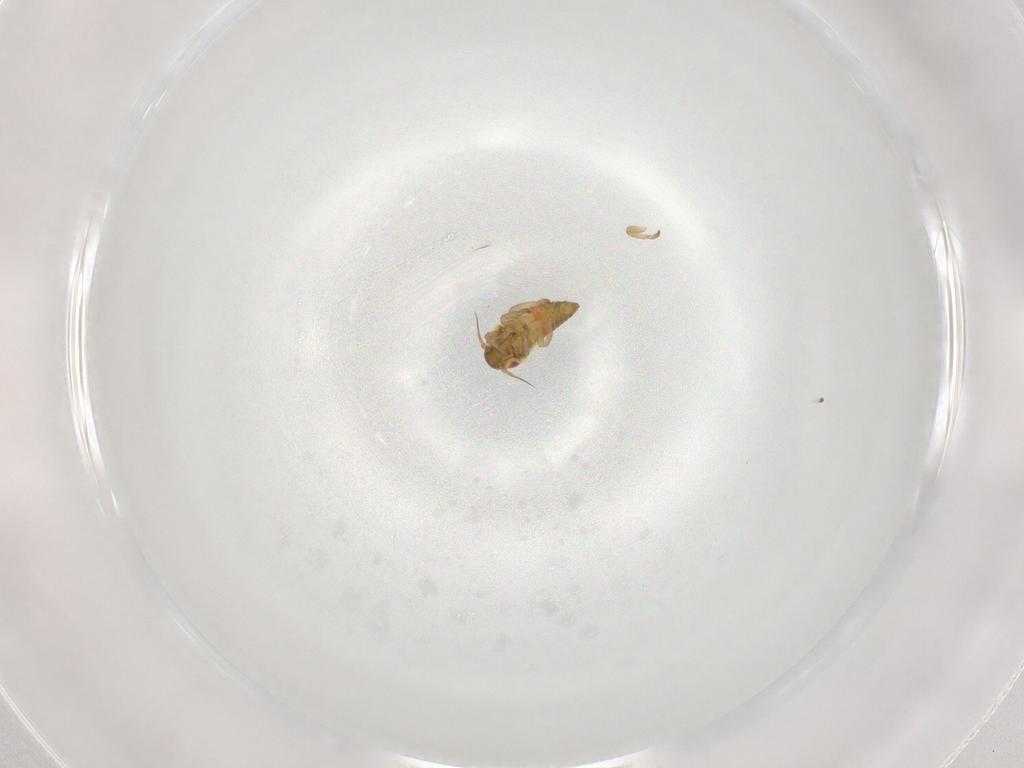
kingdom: Animalia
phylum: Arthropoda
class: Insecta
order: Hemiptera
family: Cicadellidae
